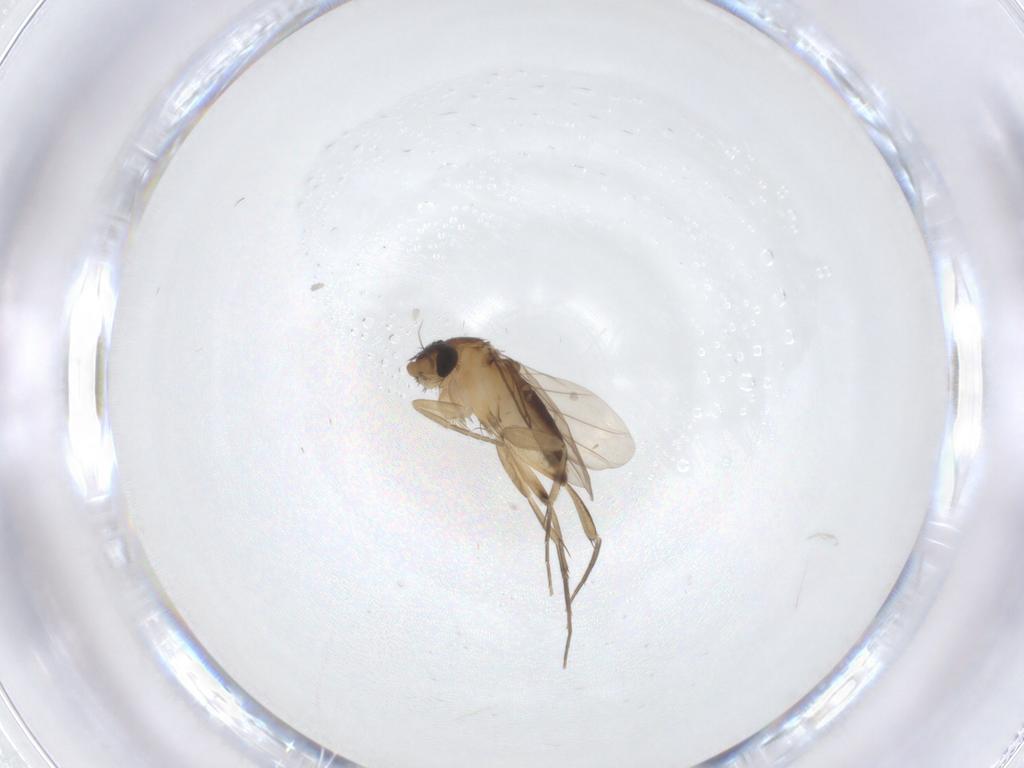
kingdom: Animalia
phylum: Arthropoda
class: Insecta
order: Diptera
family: Phoridae
